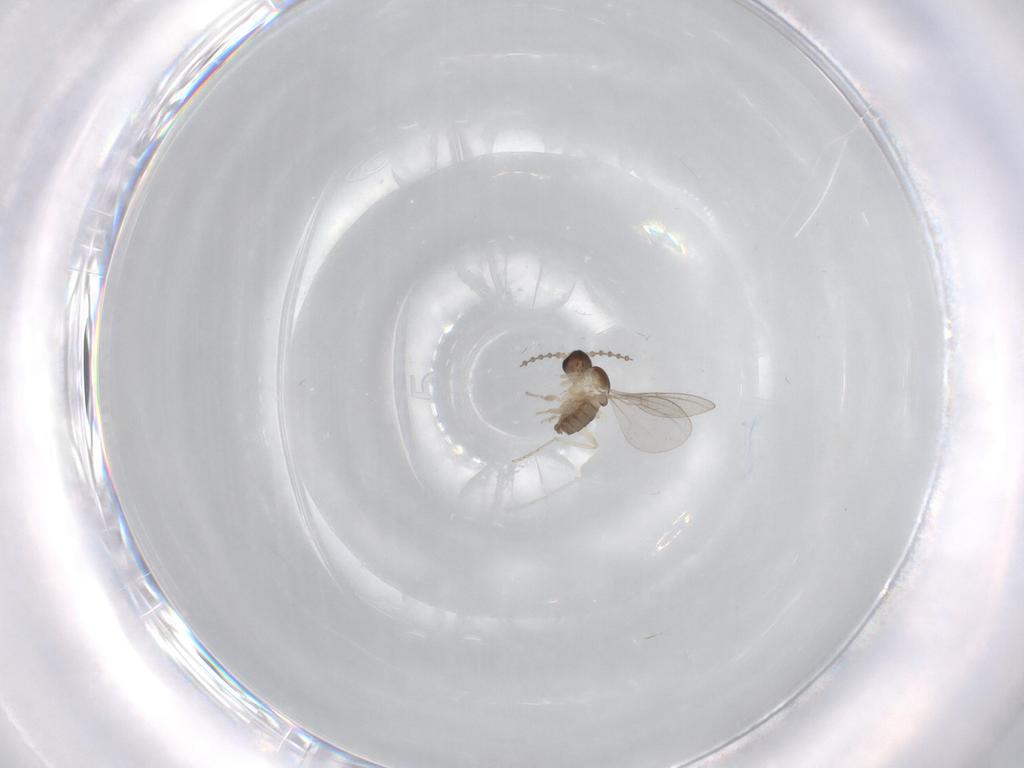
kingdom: Animalia
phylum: Arthropoda
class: Insecta
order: Diptera
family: Cecidomyiidae
